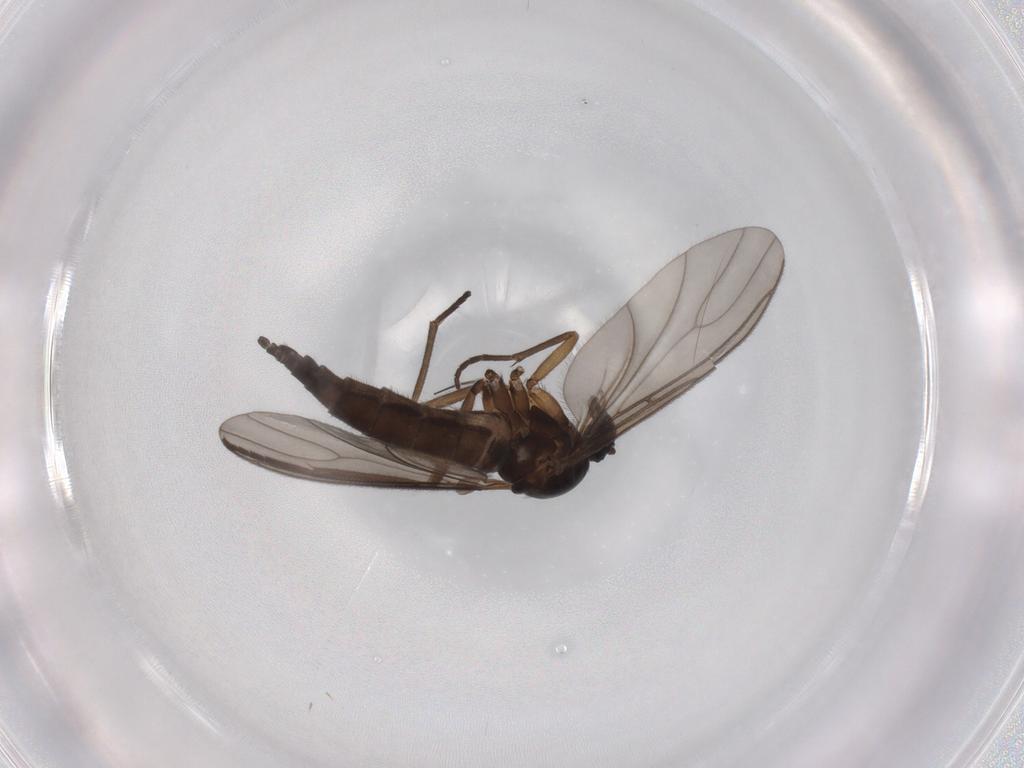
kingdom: Animalia
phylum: Arthropoda
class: Insecta
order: Diptera
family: Sciaridae
